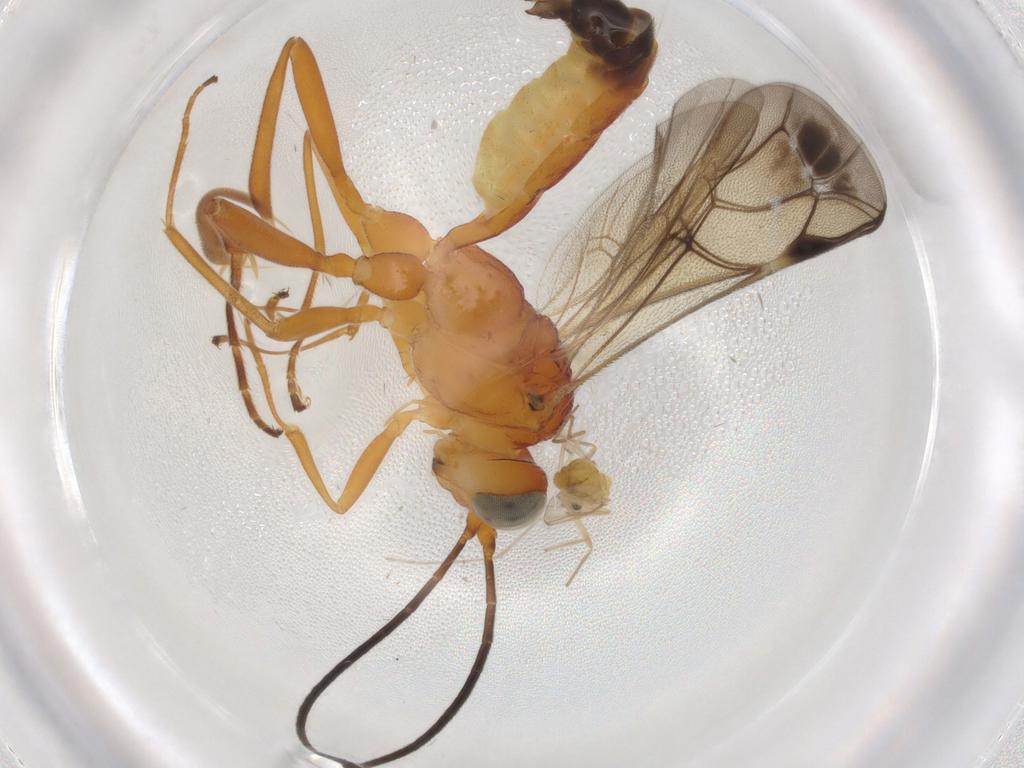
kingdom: Animalia
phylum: Arthropoda
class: Insecta
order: Diptera
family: Chironomidae
